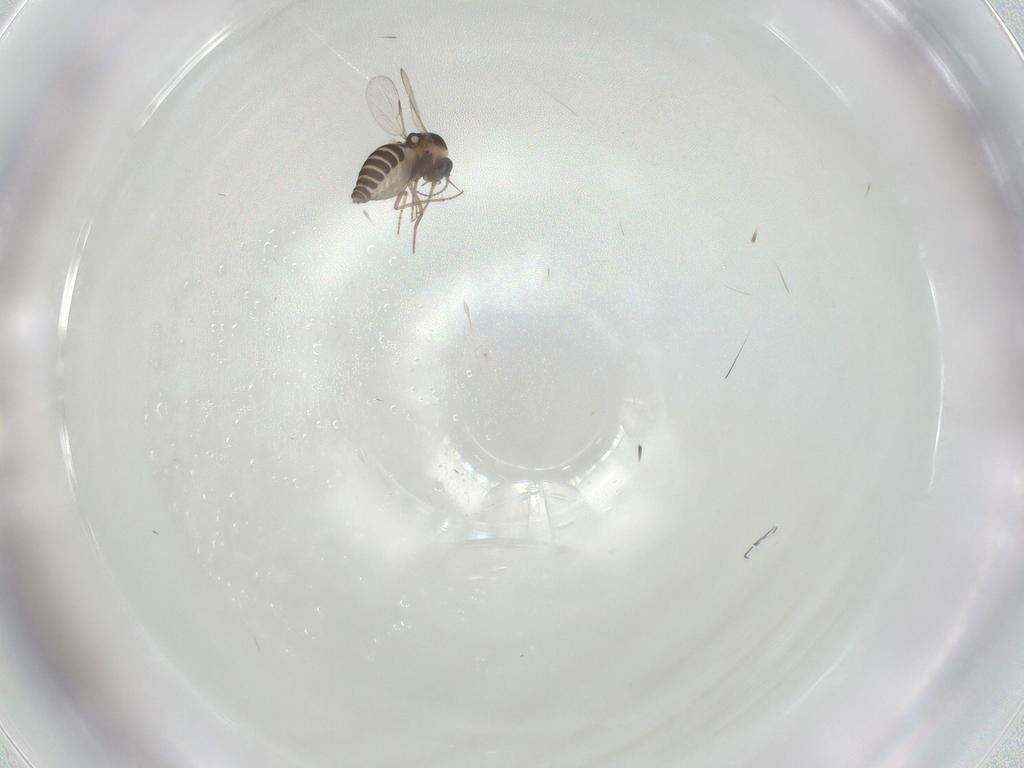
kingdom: Animalia
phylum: Arthropoda
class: Insecta
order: Diptera
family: Ceratopogonidae
